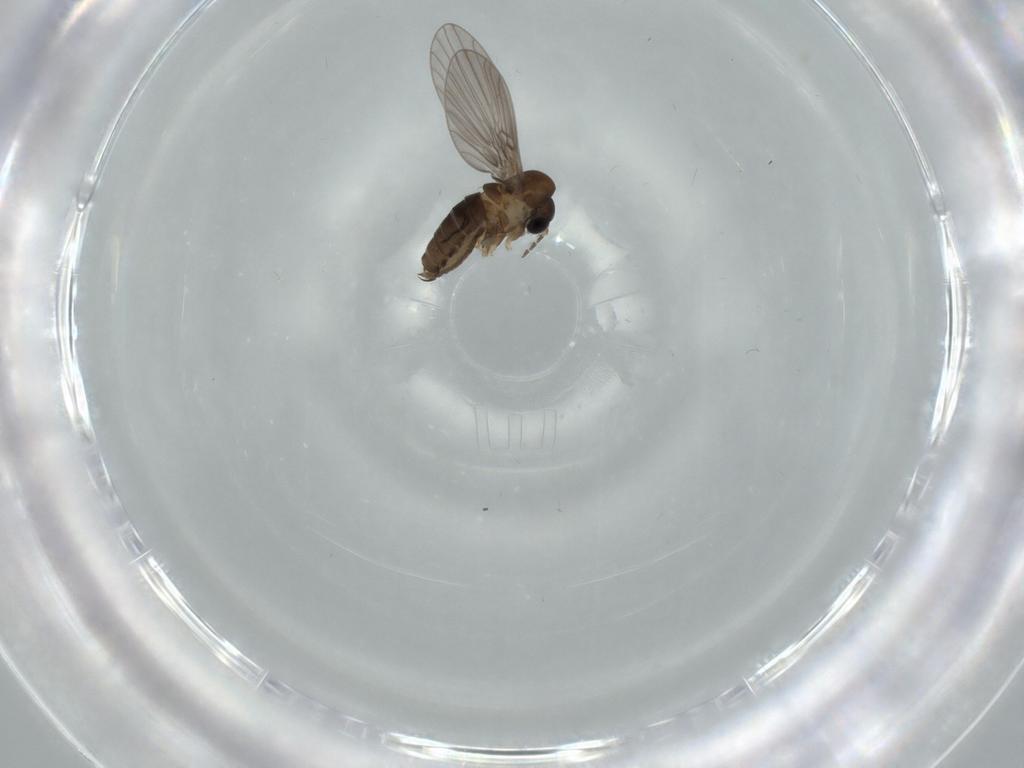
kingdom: Animalia
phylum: Arthropoda
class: Insecta
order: Diptera
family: Psychodidae
